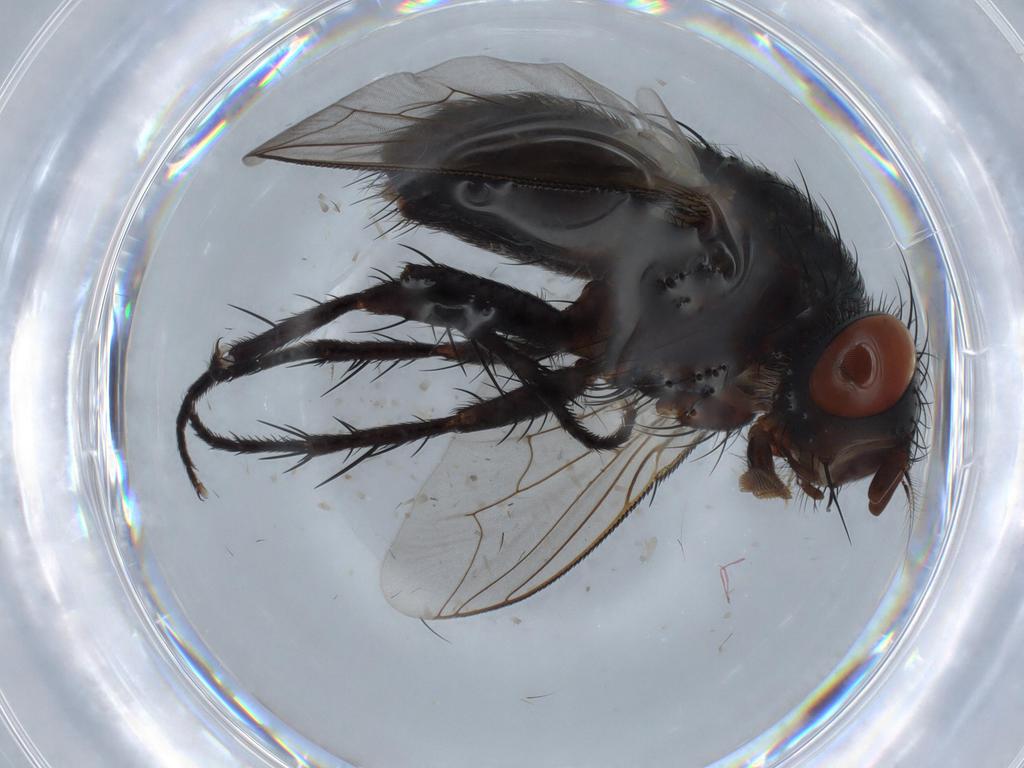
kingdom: Animalia
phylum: Arthropoda
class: Insecta
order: Diptera
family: Sarcophagidae
